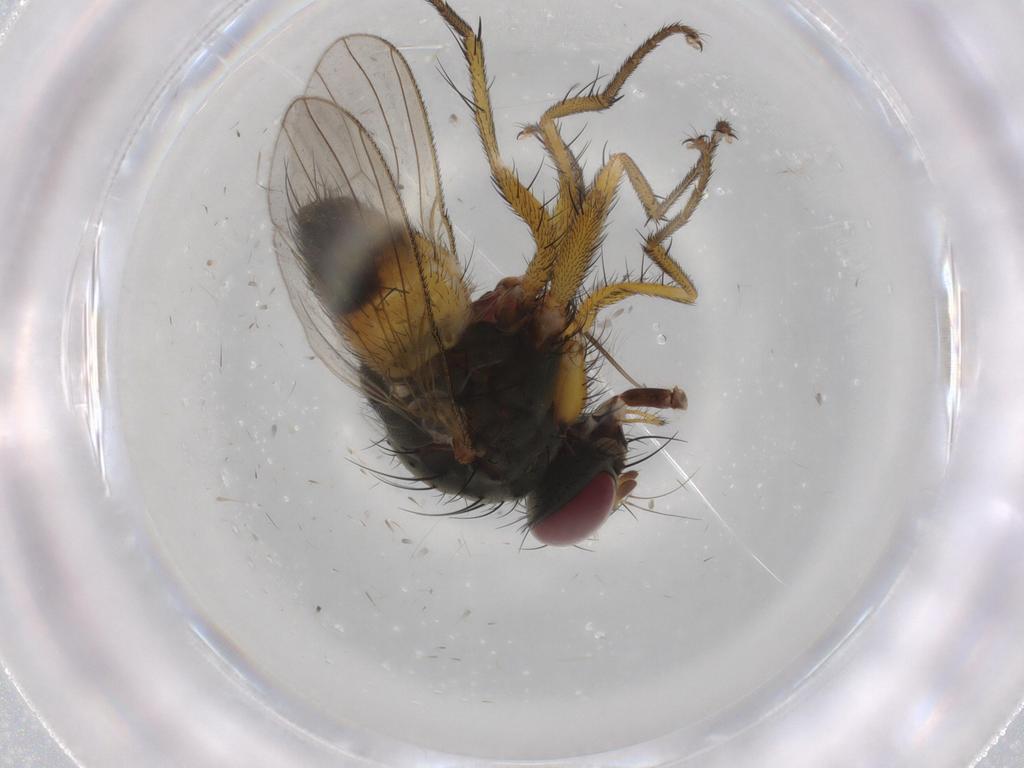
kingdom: Animalia
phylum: Arthropoda
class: Insecta
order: Diptera
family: Muscidae
